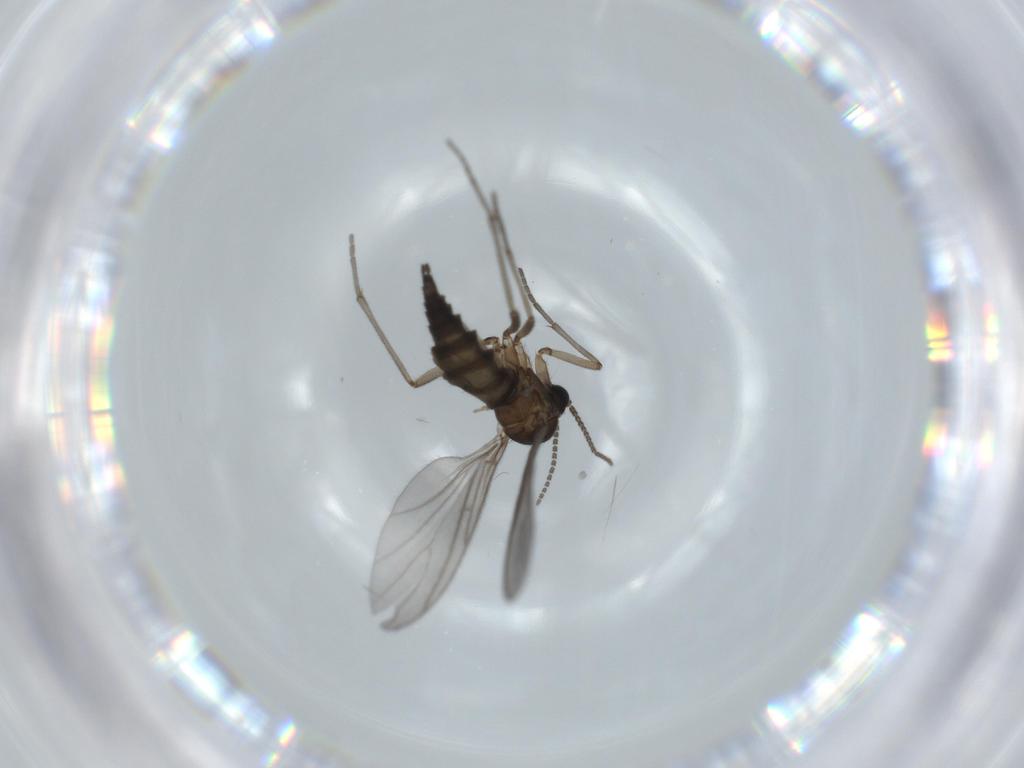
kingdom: Animalia
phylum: Arthropoda
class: Insecta
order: Diptera
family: Sciaridae
